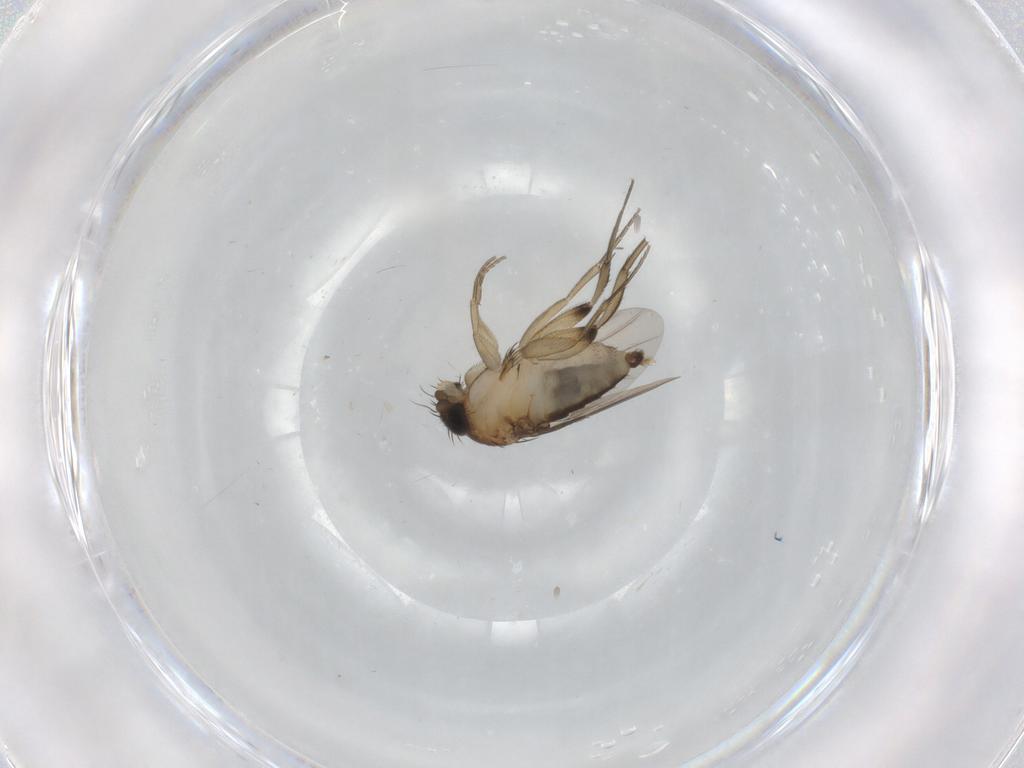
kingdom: Animalia
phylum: Arthropoda
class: Insecta
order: Diptera
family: Phoridae
